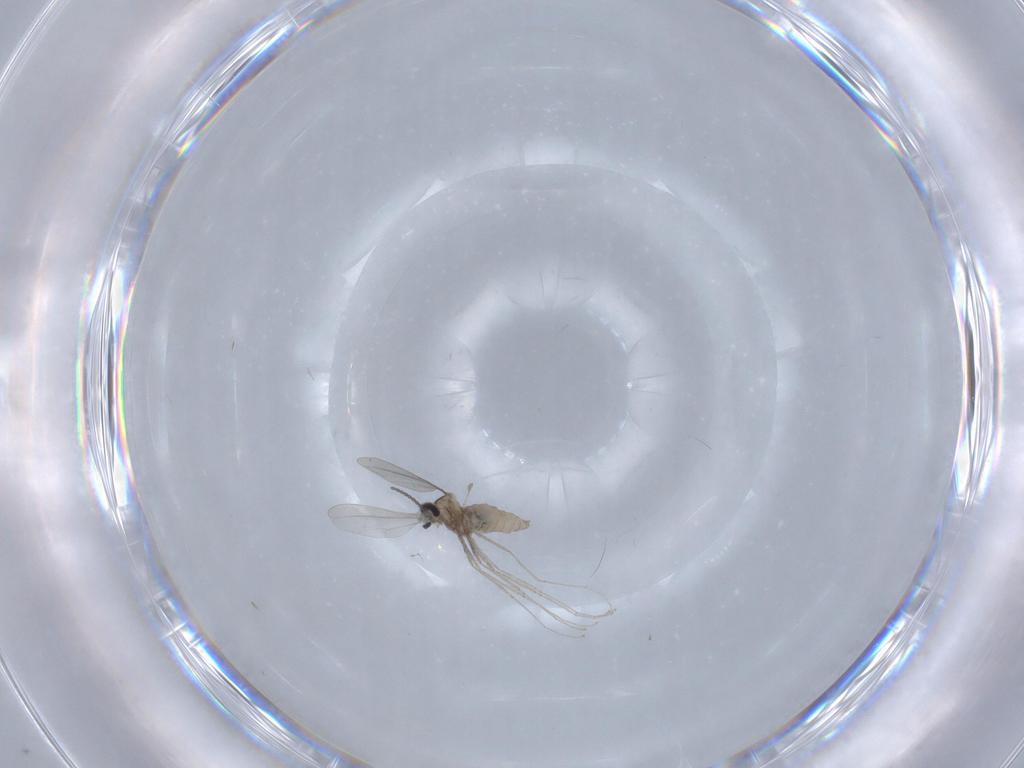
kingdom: Animalia
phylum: Arthropoda
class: Insecta
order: Diptera
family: Cecidomyiidae
